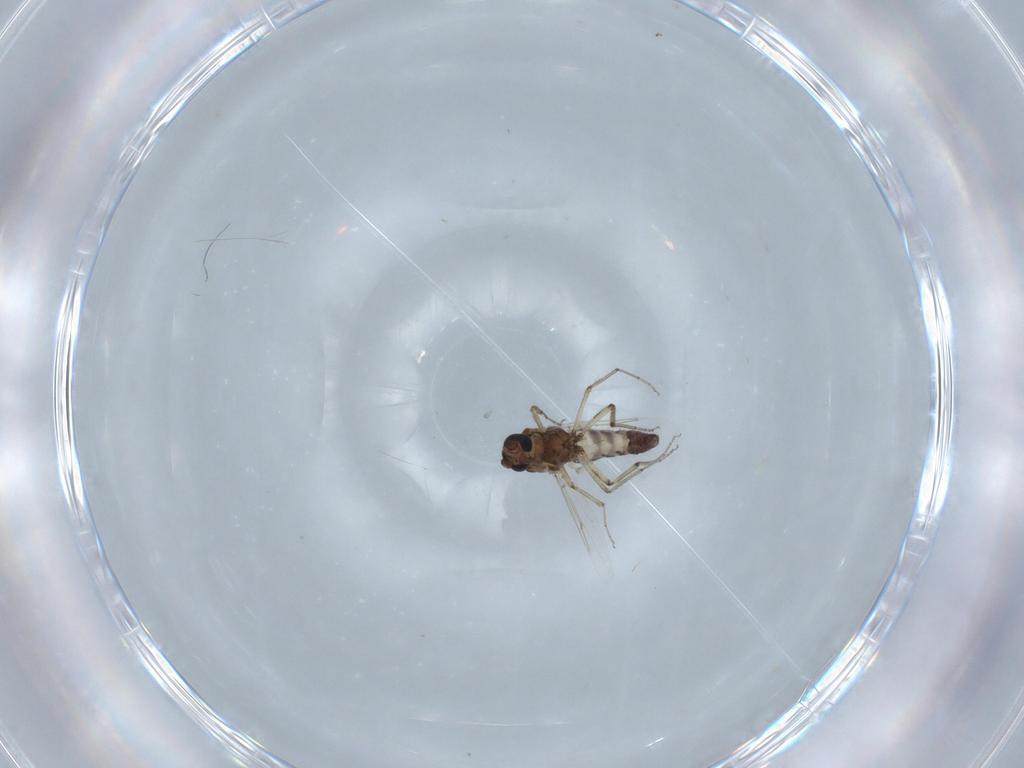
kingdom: Animalia
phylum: Arthropoda
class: Insecta
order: Diptera
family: Ceratopogonidae
